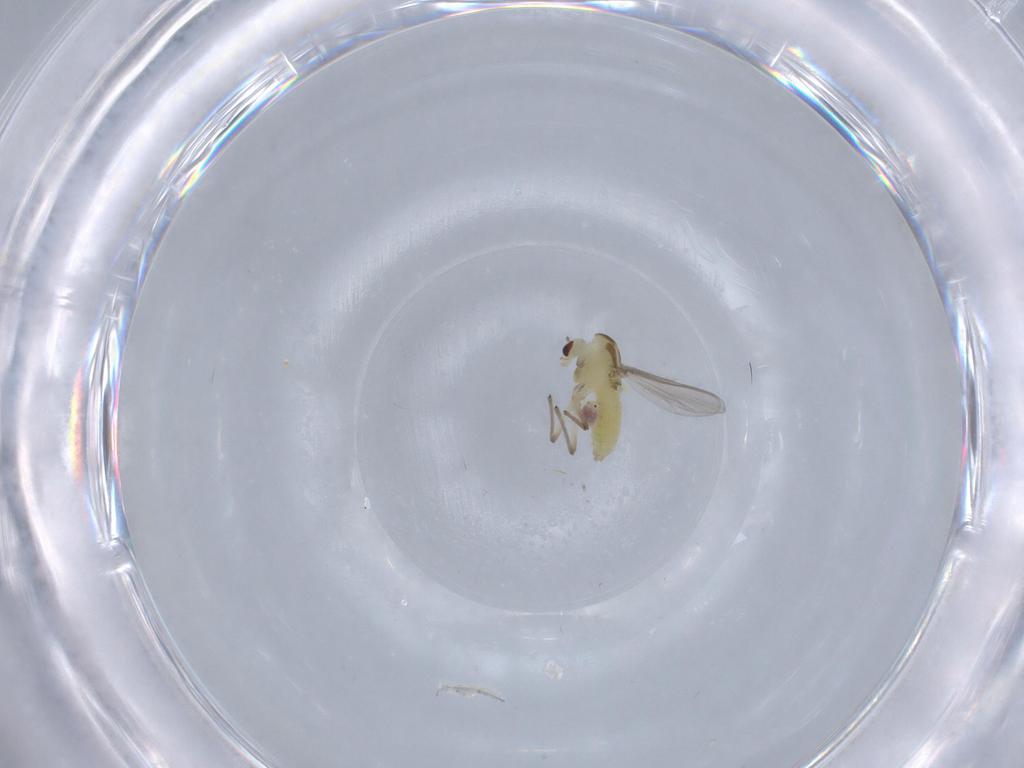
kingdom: Animalia
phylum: Arthropoda
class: Insecta
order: Diptera
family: Chironomidae
